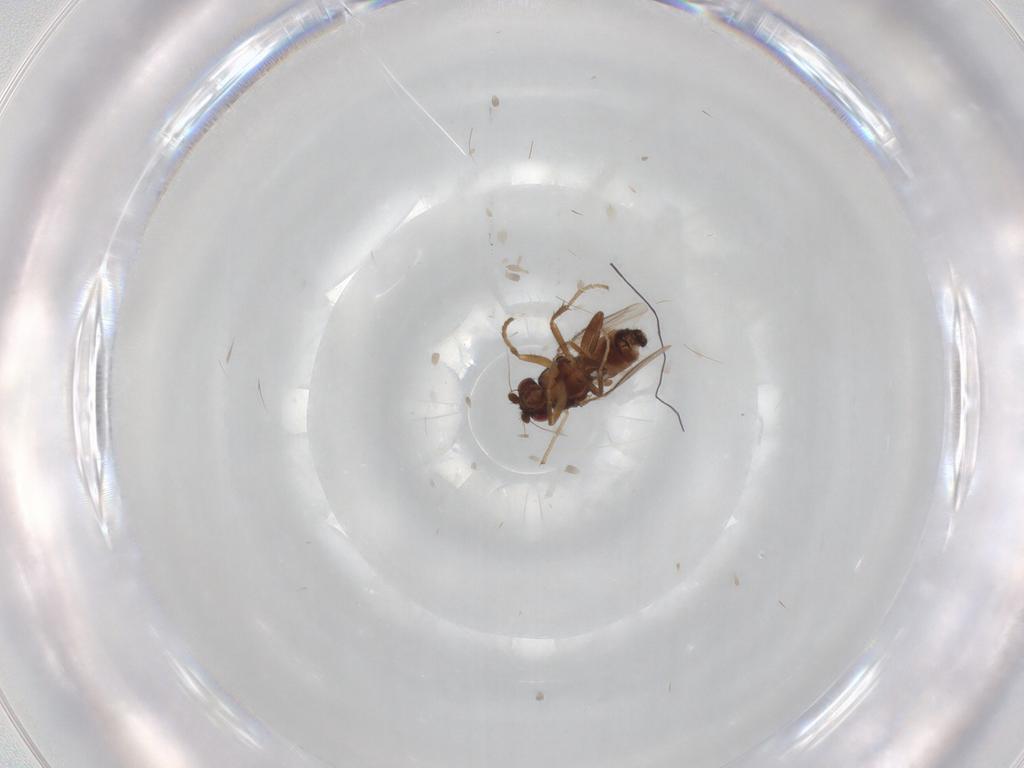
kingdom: Animalia
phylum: Arthropoda
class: Insecta
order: Diptera
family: Sphaeroceridae
